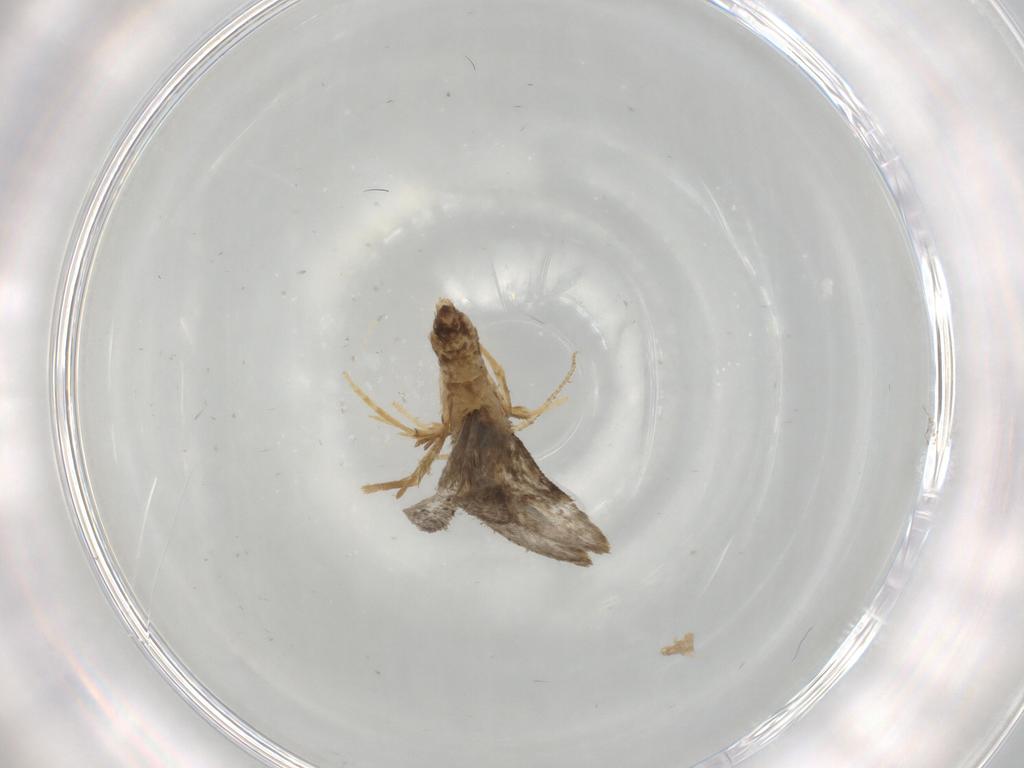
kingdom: Animalia
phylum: Arthropoda
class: Insecta
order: Lepidoptera
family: Psychidae
